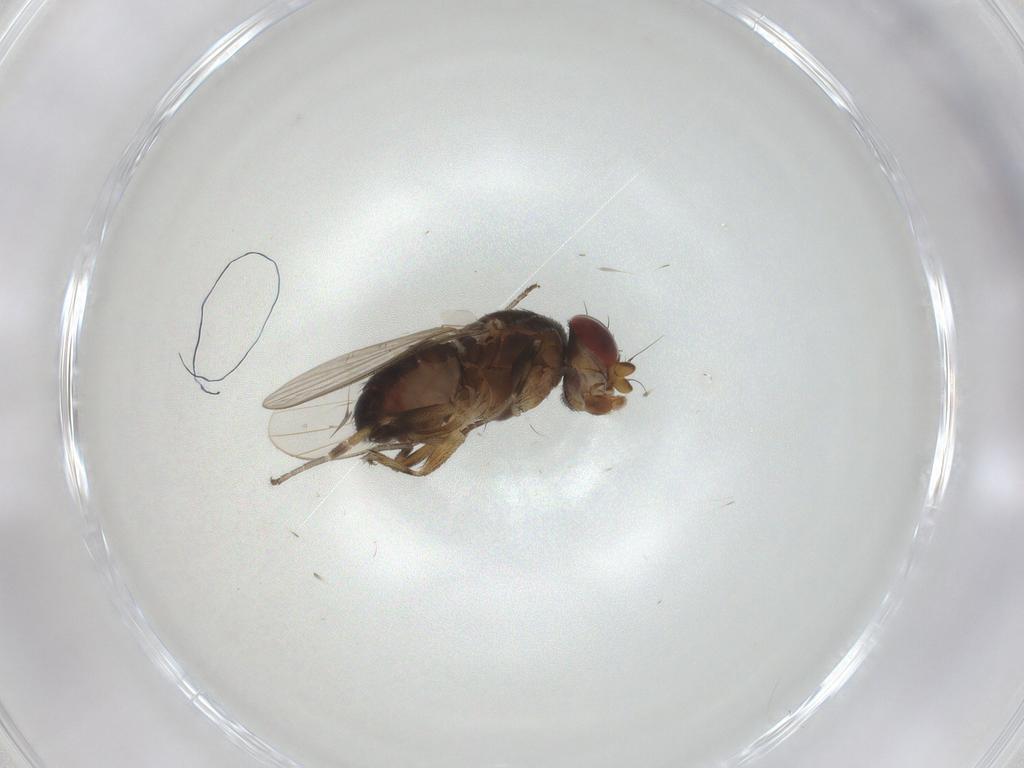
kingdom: Animalia
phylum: Arthropoda
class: Insecta
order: Diptera
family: Heleomyzidae
